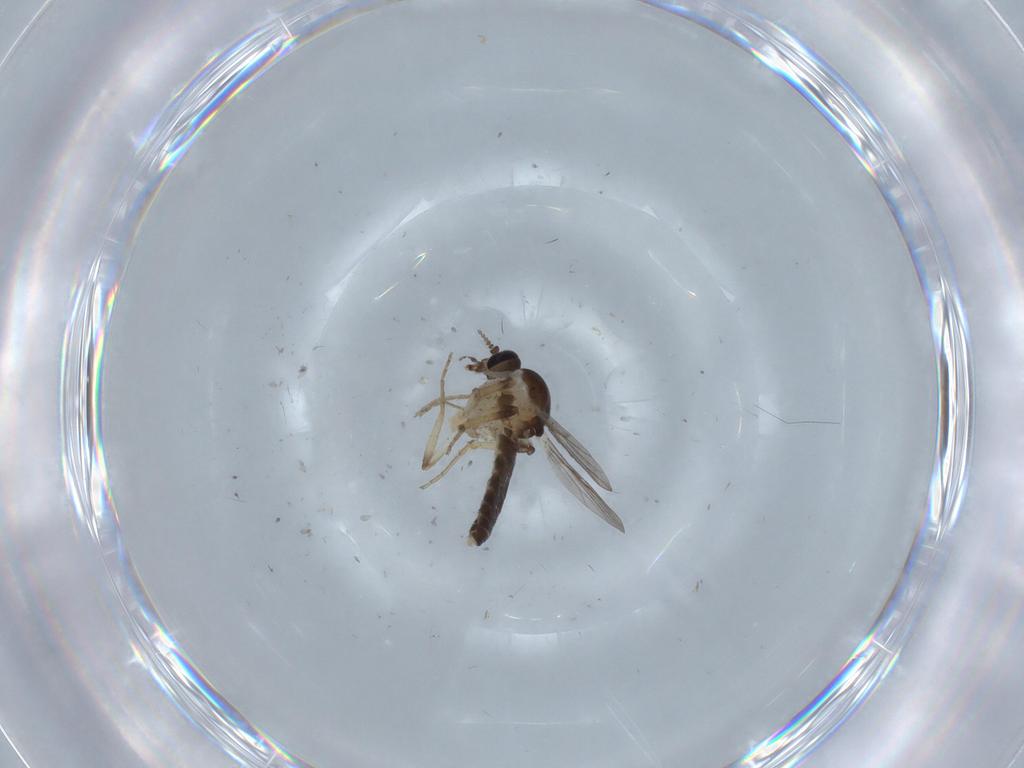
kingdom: Animalia
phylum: Arthropoda
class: Insecta
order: Diptera
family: Ceratopogonidae
